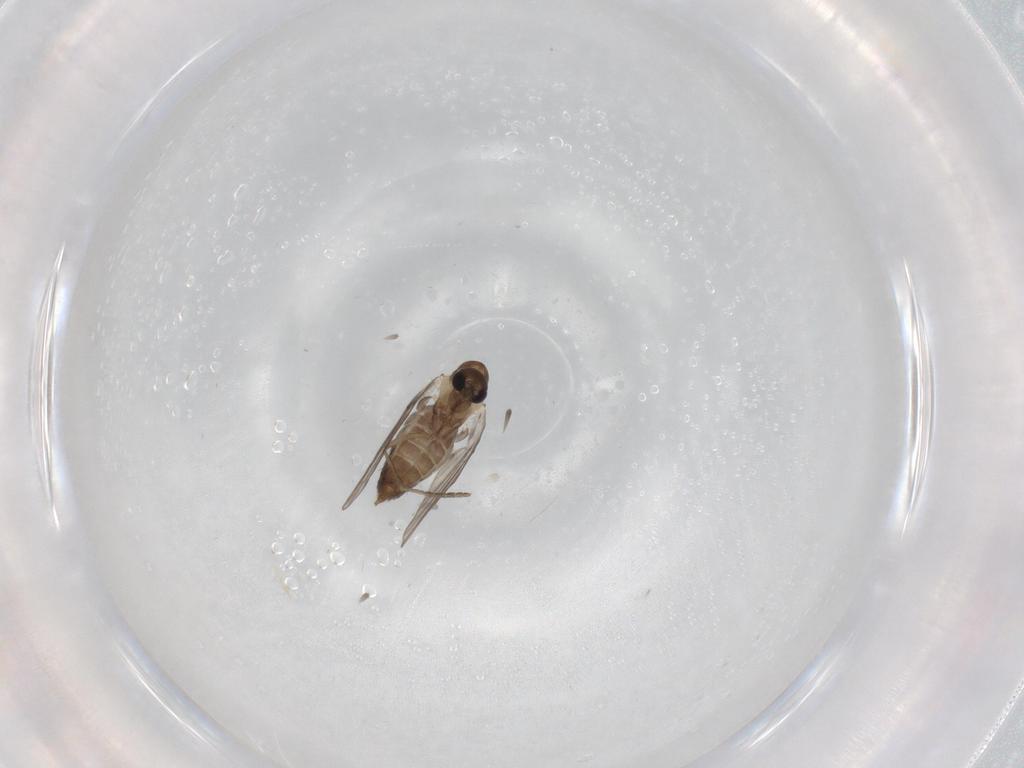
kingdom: Animalia
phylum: Arthropoda
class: Insecta
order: Diptera
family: Psychodidae
